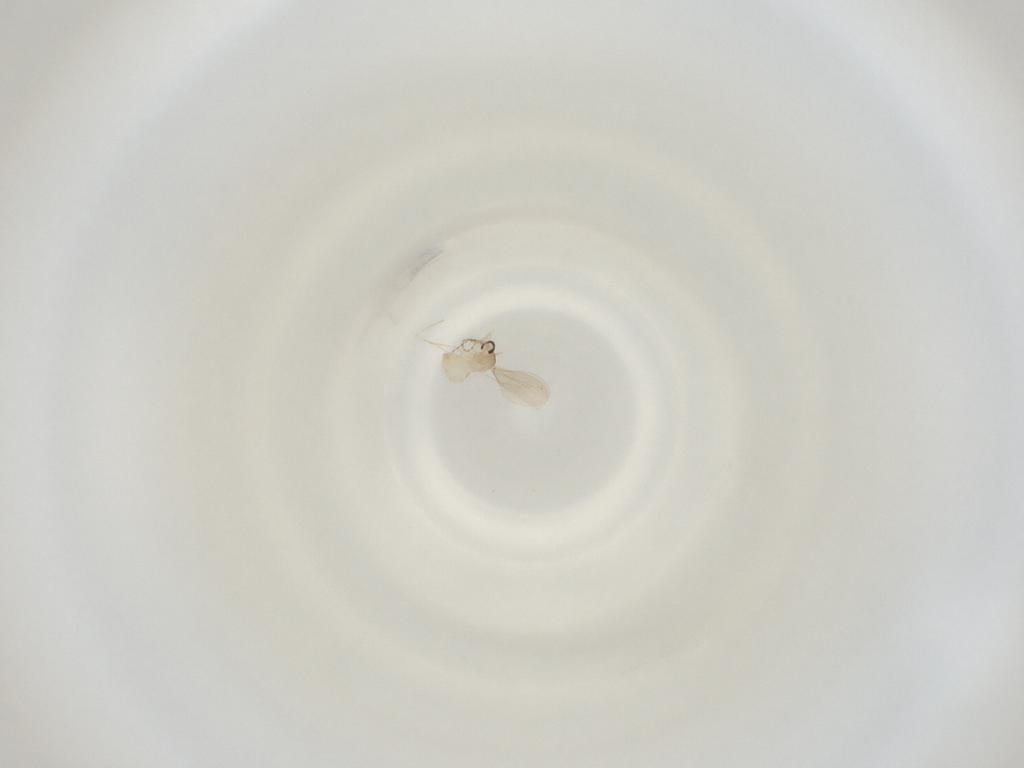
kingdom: Animalia
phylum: Arthropoda
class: Insecta
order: Diptera
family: Cecidomyiidae
